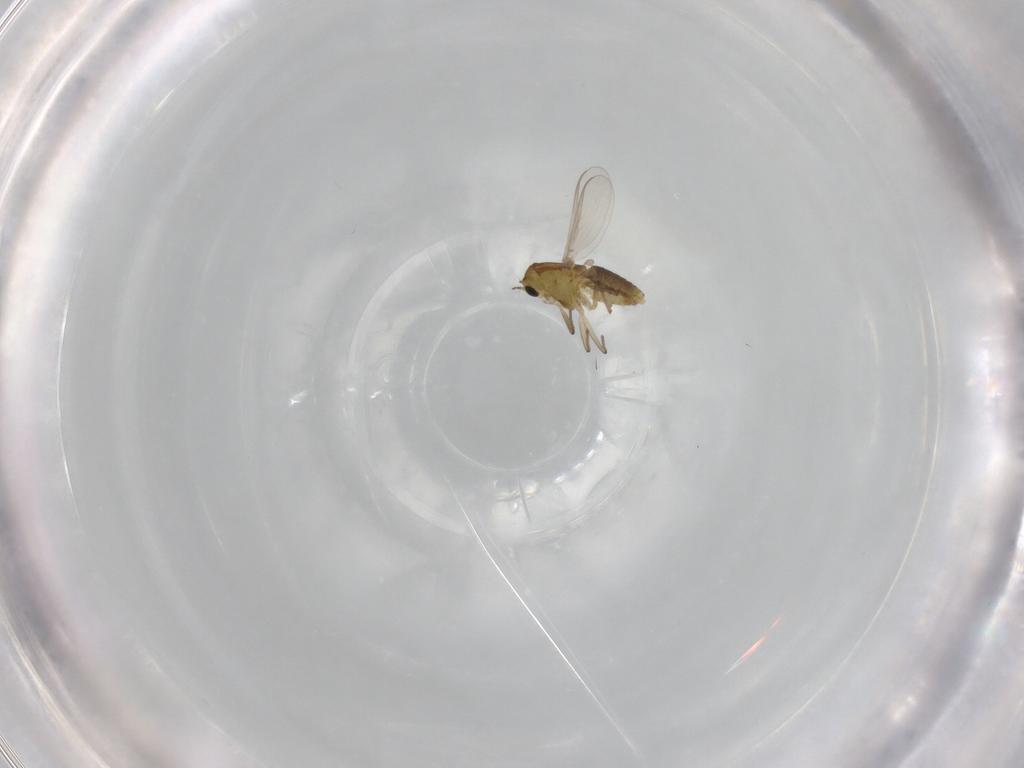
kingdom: Animalia
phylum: Arthropoda
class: Insecta
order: Diptera
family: Chironomidae
